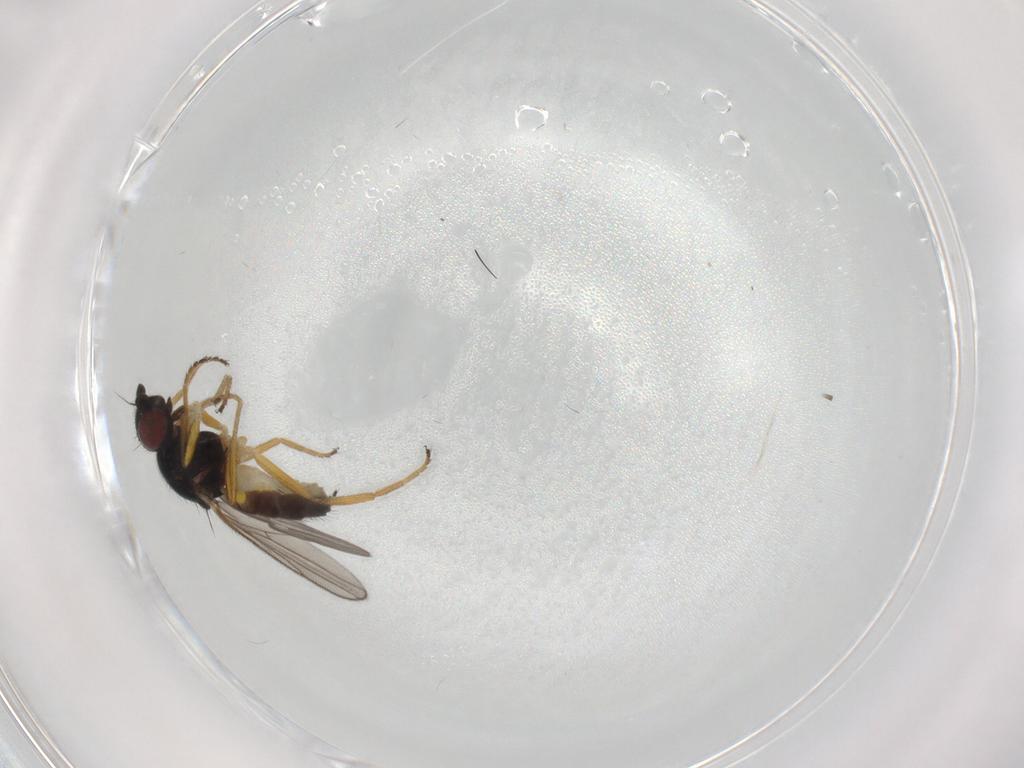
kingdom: Animalia
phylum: Arthropoda
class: Insecta
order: Diptera
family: Chloropidae
